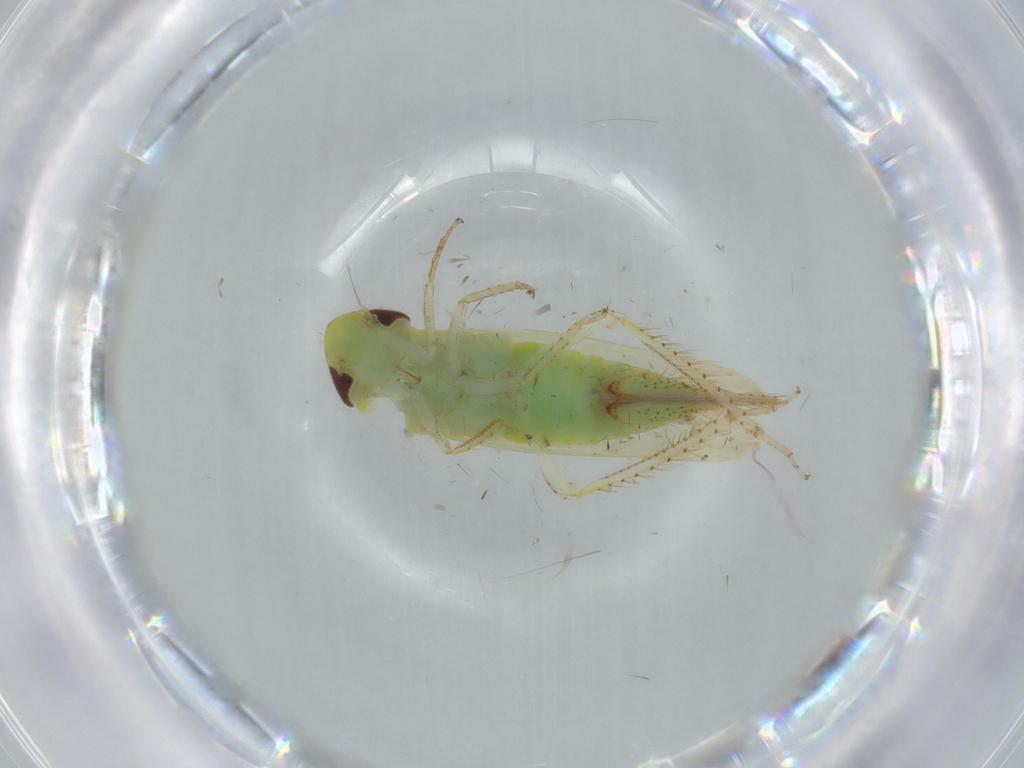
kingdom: Animalia
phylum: Arthropoda
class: Insecta
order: Hemiptera
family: Cicadellidae
